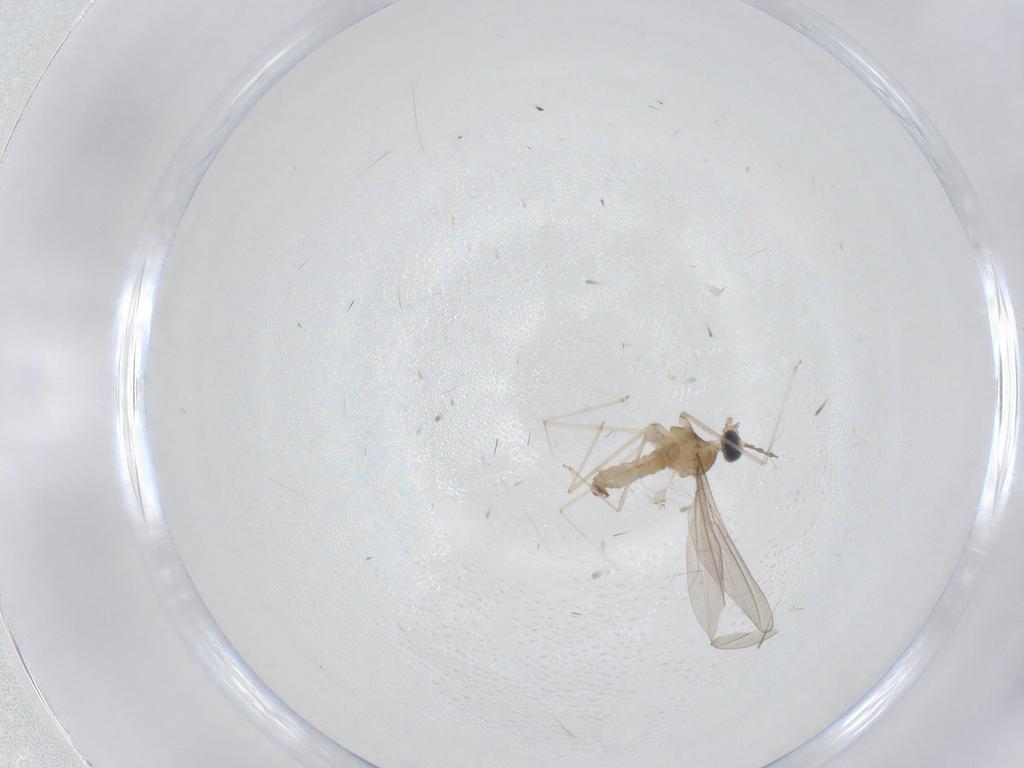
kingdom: Animalia
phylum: Arthropoda
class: Insecta
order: Diptera
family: Cecidomyiidae
